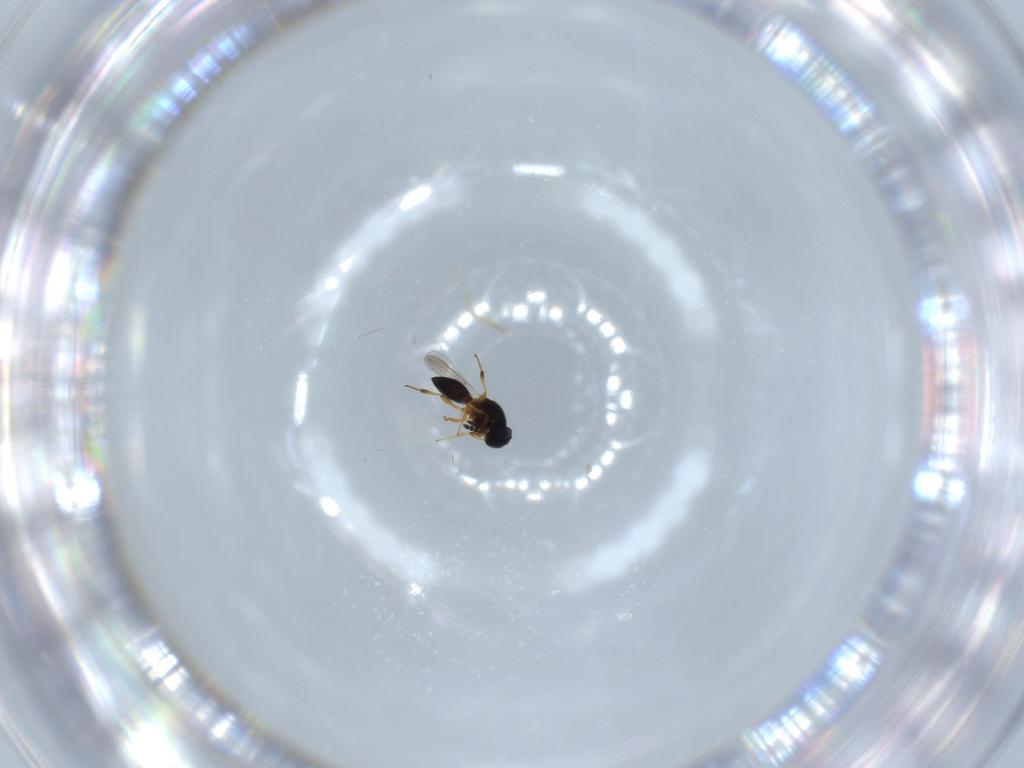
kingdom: Animalia
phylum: Arthropoda
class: Insecta
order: Hymenoptera
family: Platygastridae
